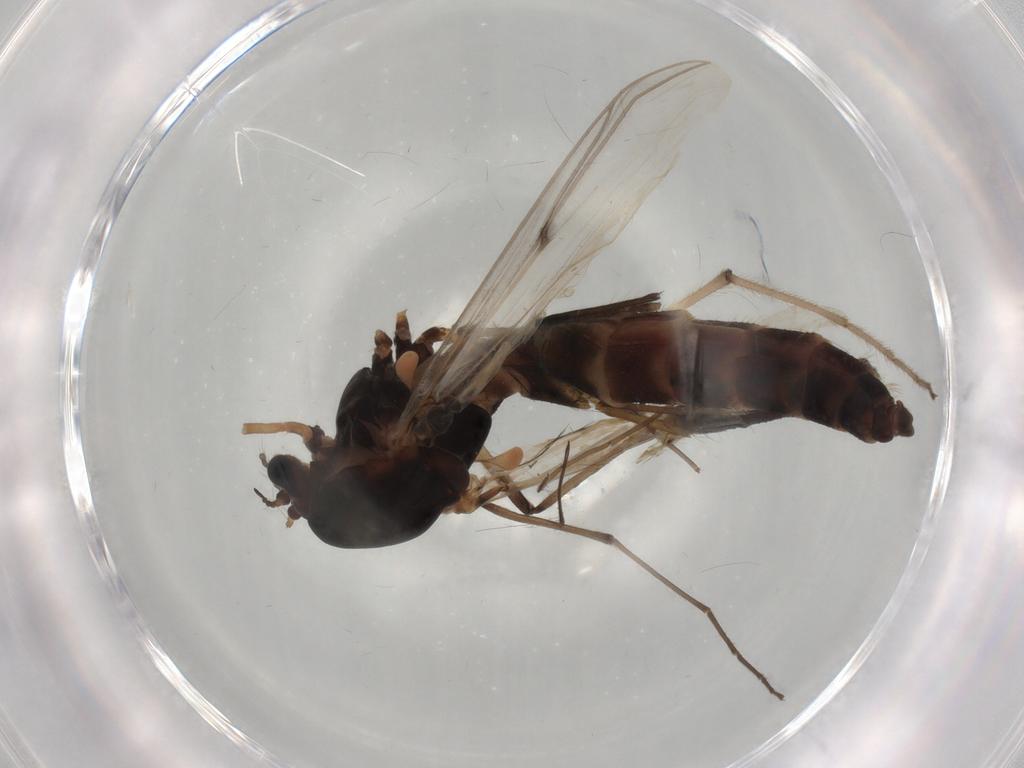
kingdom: Animalia
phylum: Arthropoda
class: Insecta
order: Diptera
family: Chironomidae
